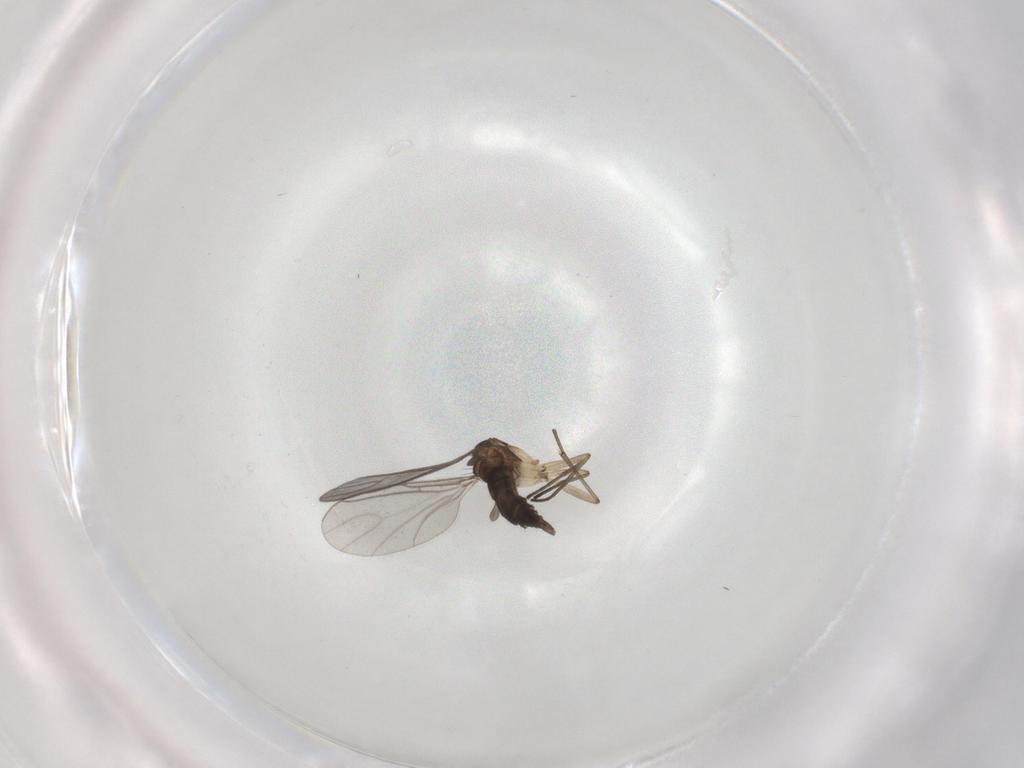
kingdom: Animalia
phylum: Arthropoda
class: Insecta
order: Diptera
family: Sciaridae
